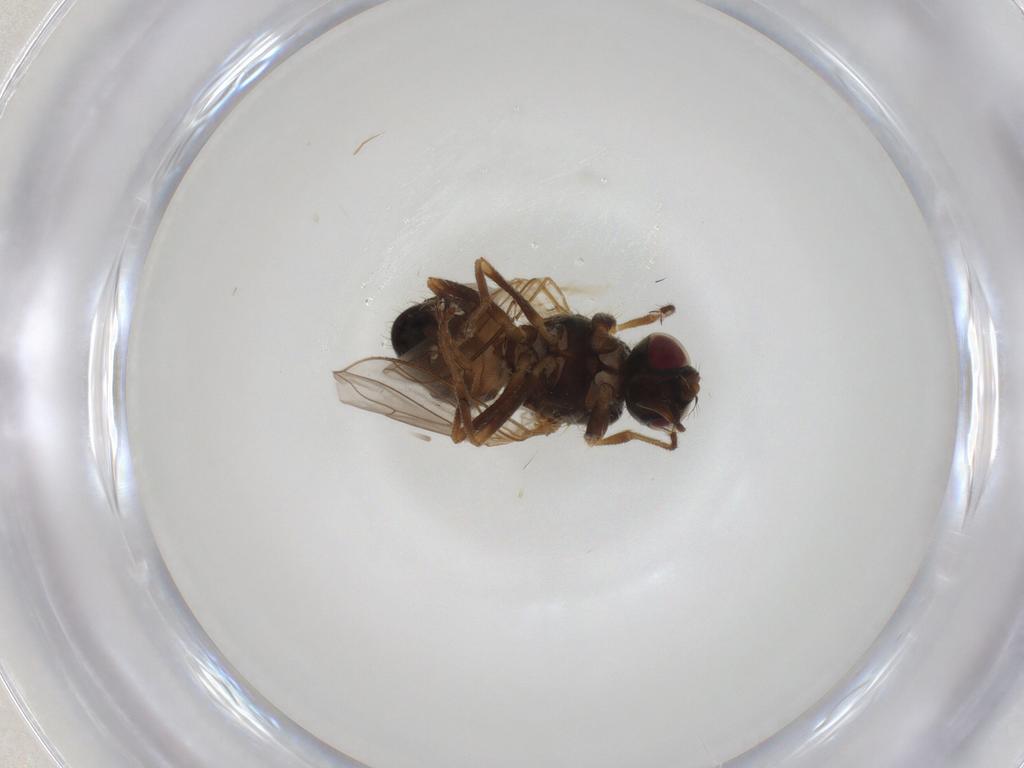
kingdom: Animalia
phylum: Arthropoda
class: Insecta
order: Diptera
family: Muscidae
